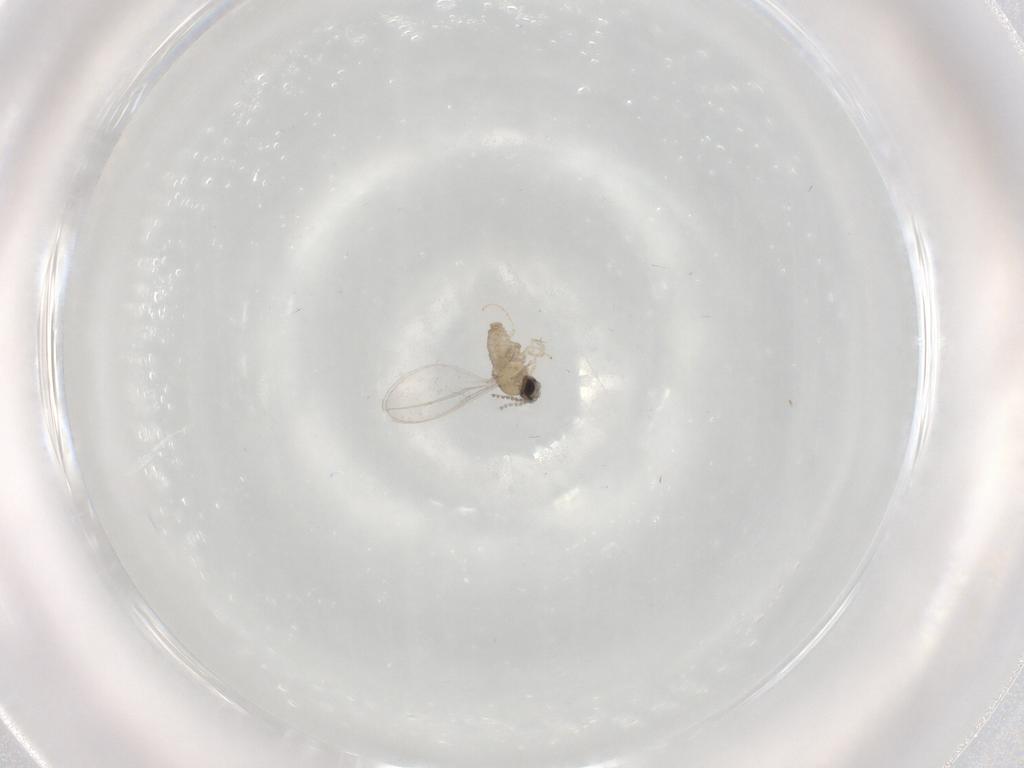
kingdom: Animalia
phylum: Arthropoda
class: Insecta
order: Diptera
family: Cecidomyiidae
